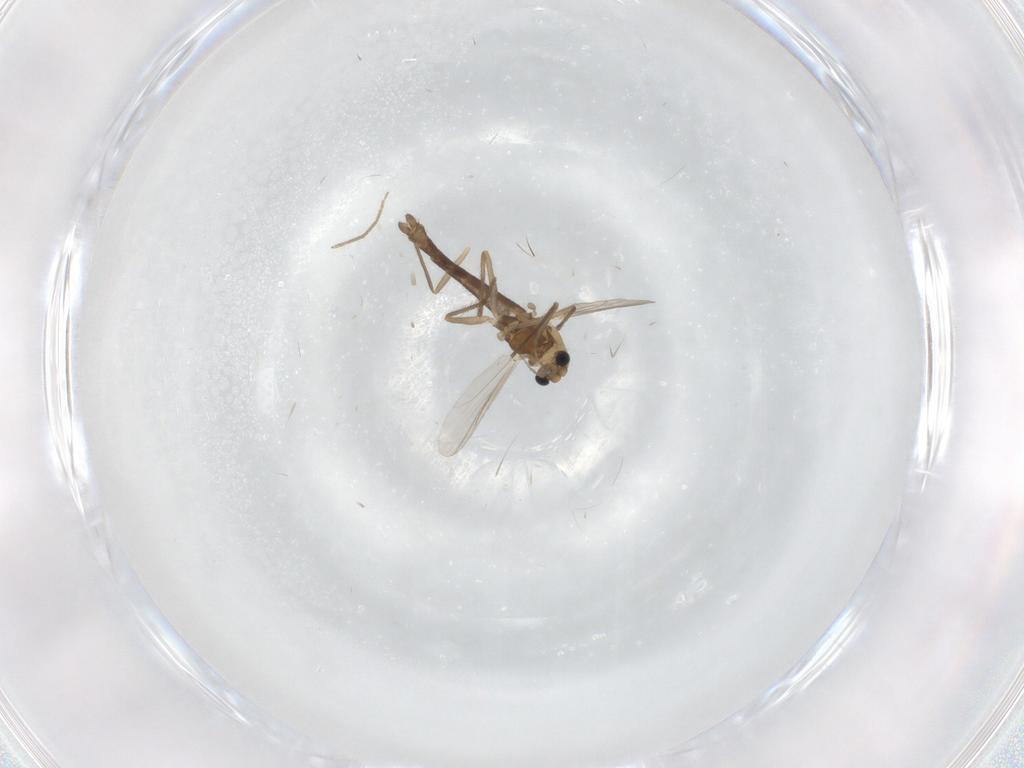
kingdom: Animalia
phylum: Arthropoda
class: Insecta
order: Diptera
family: Chironomidae
